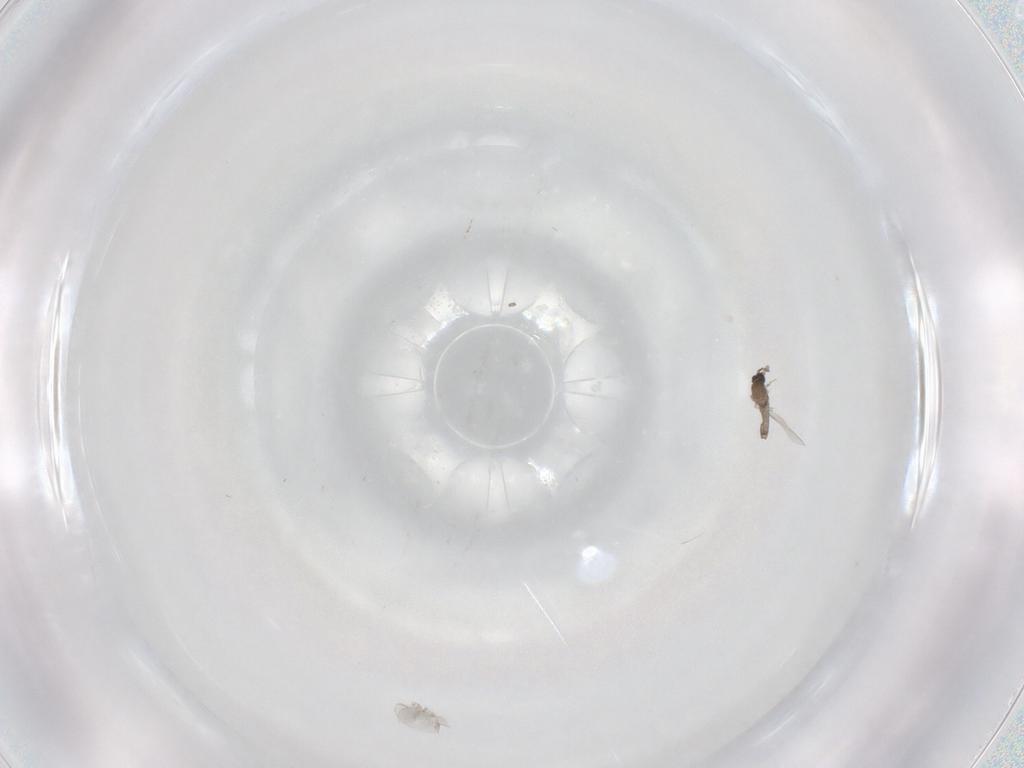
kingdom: Animalia
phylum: Arthropoda
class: Insecta
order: Diptera
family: Cecidomyiidae
